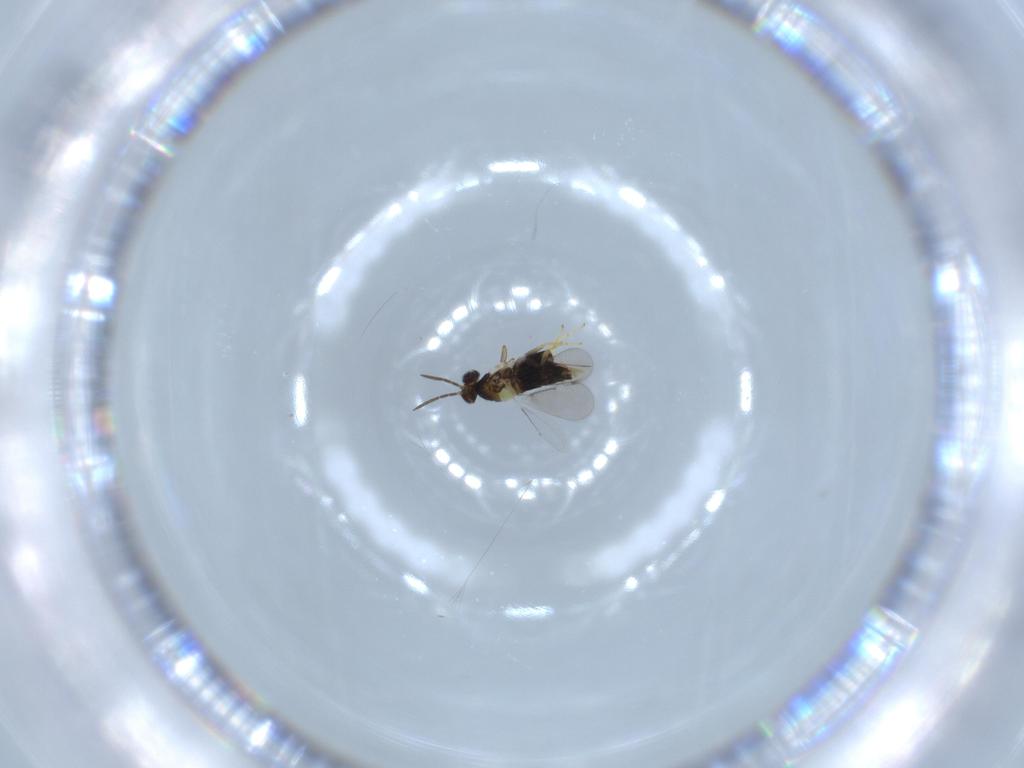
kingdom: Animalia
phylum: Arthropoda
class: Insecta
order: Hymenoptera
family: Aphelinidae
